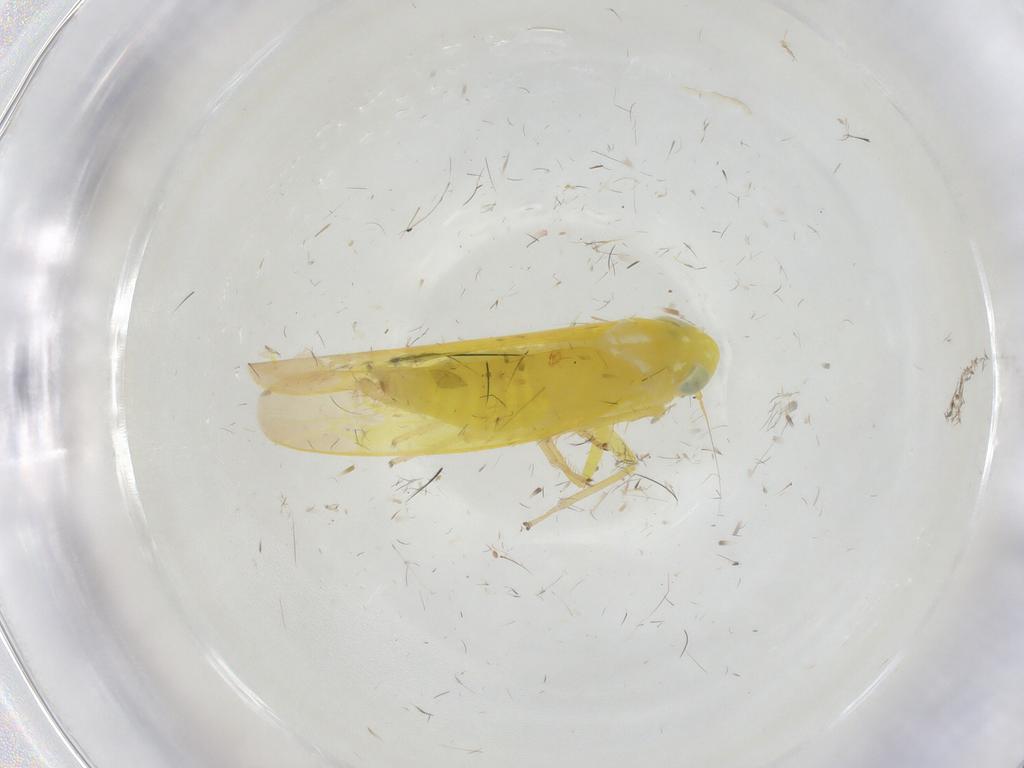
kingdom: Animalia
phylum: Arthropoda
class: Insecta
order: Hemiptera
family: Cicadellidae
